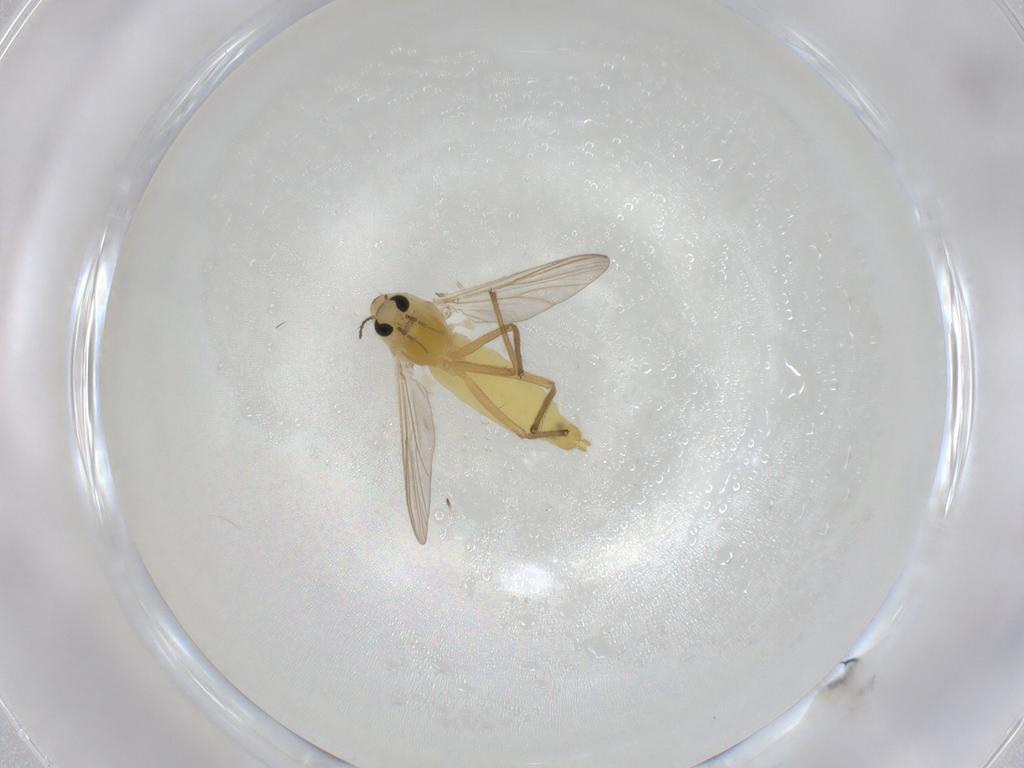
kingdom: Animalia
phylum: Arthropoda
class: Insecta
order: Diptera
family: Chironomidae
